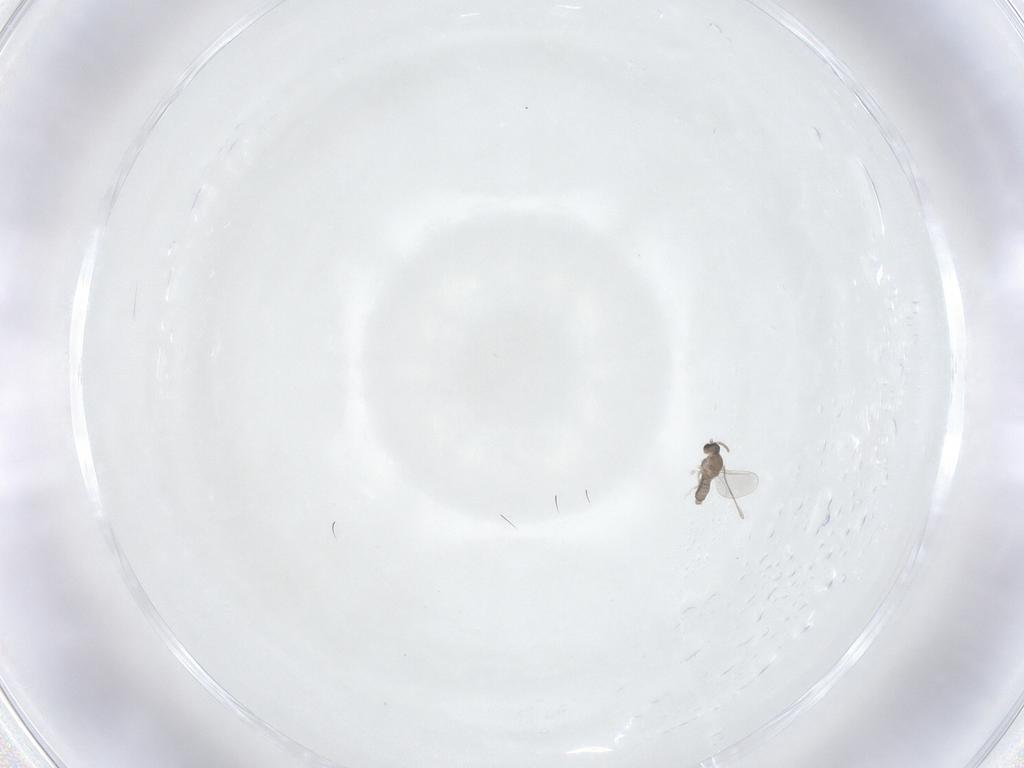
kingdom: Animalia
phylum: Arthropoda
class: Insecta
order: Diptera
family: Cecidomyiidae
